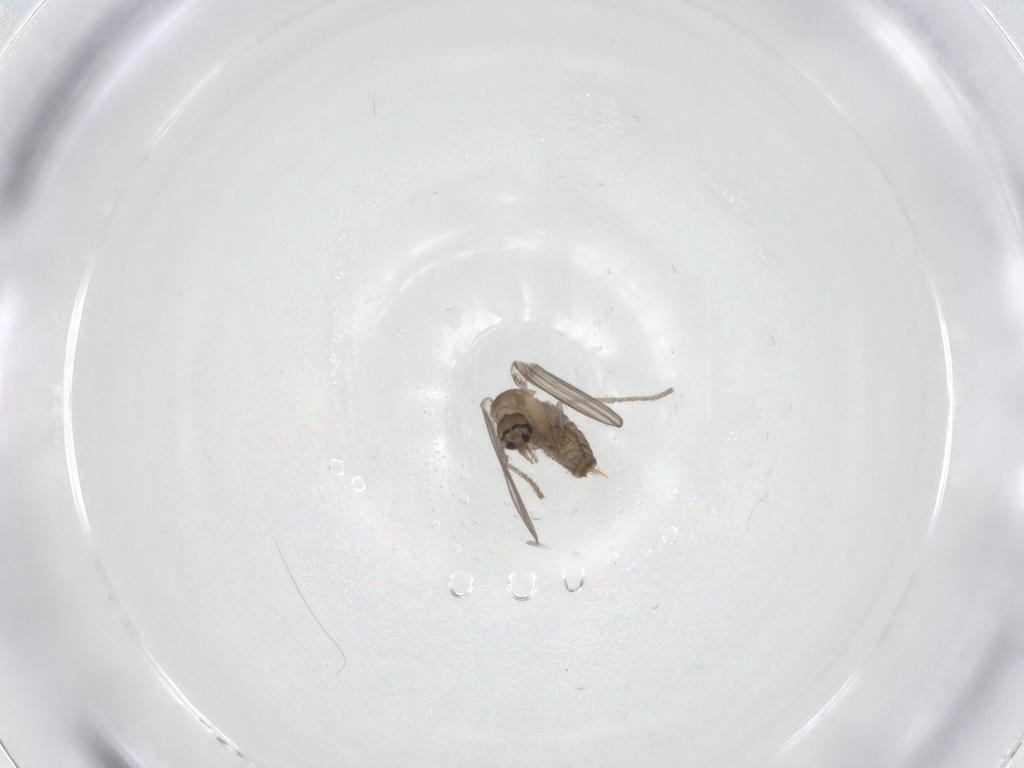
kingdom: Animalia
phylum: Arthropoda
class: Insecta
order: Diptera
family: Psychodidae
